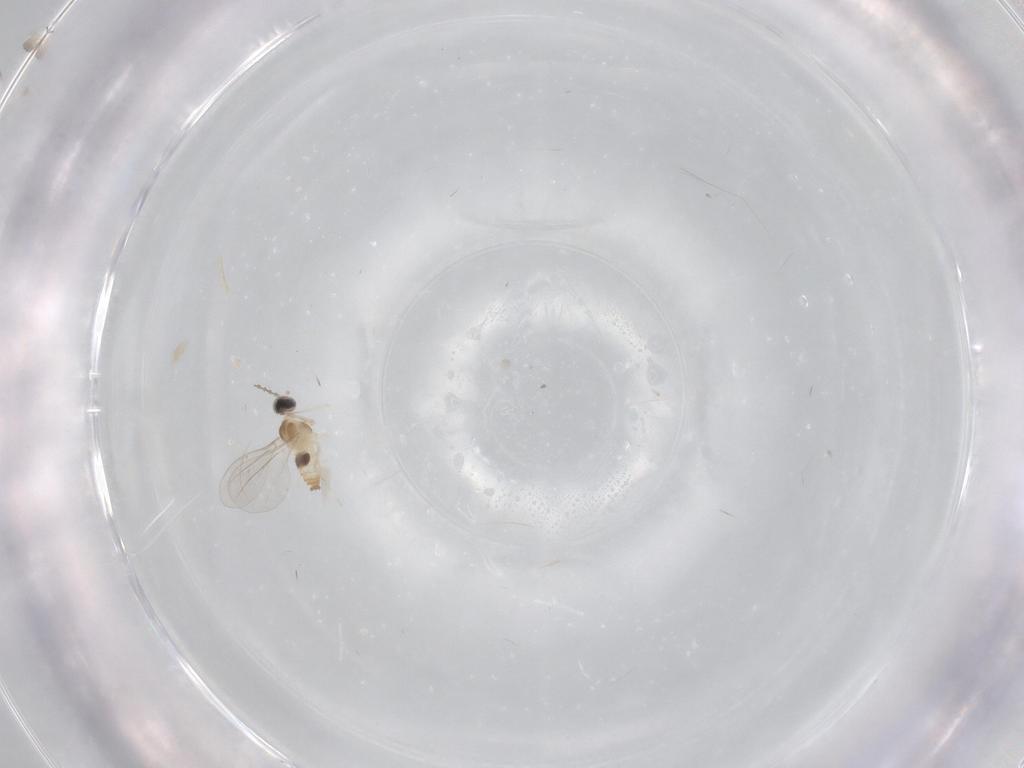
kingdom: Animalia
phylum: Arthropoda
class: Insecta
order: Diptera
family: Cecidomyiidae
